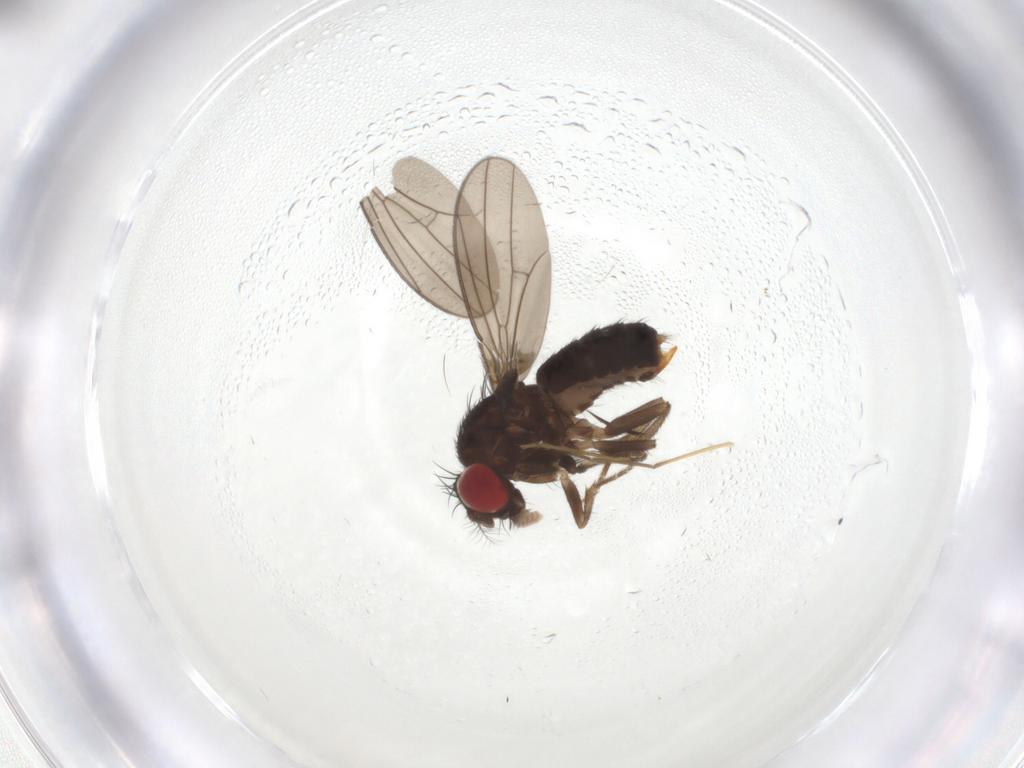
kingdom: Animalia
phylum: Arthropoda
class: Insecta
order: Diptera
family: Drosophilidae
